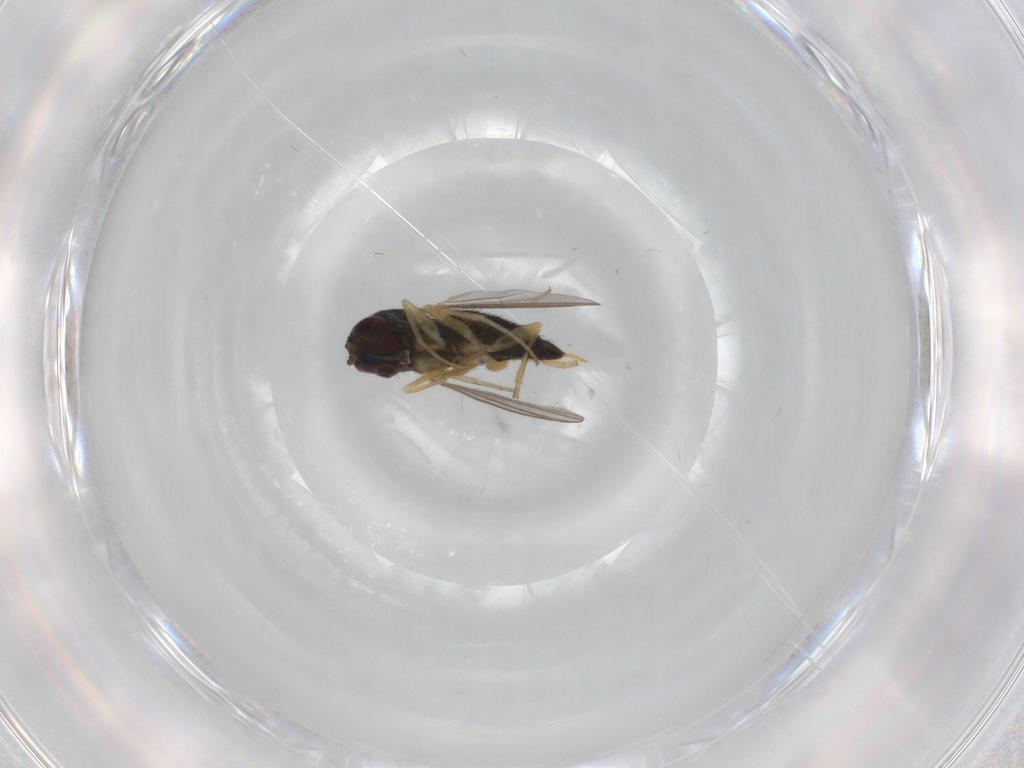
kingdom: Animalia
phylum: Arthropoda
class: Insecta
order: Diptera
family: Dolichopodidae
